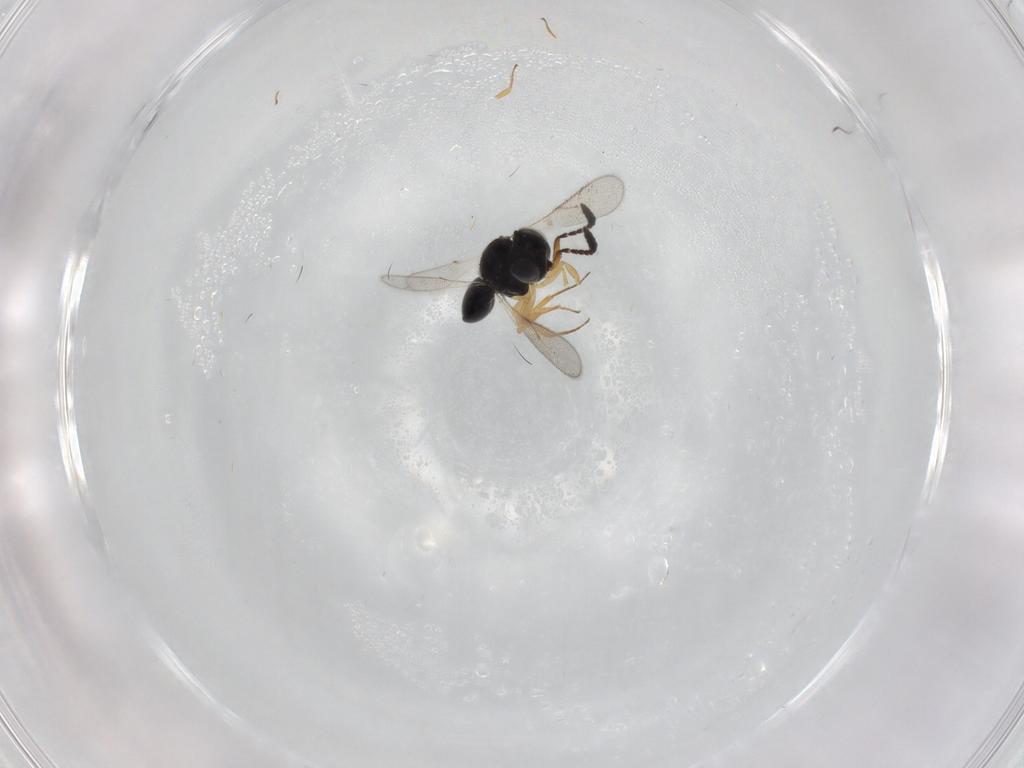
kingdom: Animalia
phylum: Arthropoda
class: Insecta
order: Hymenoptera
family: Scelionidae
